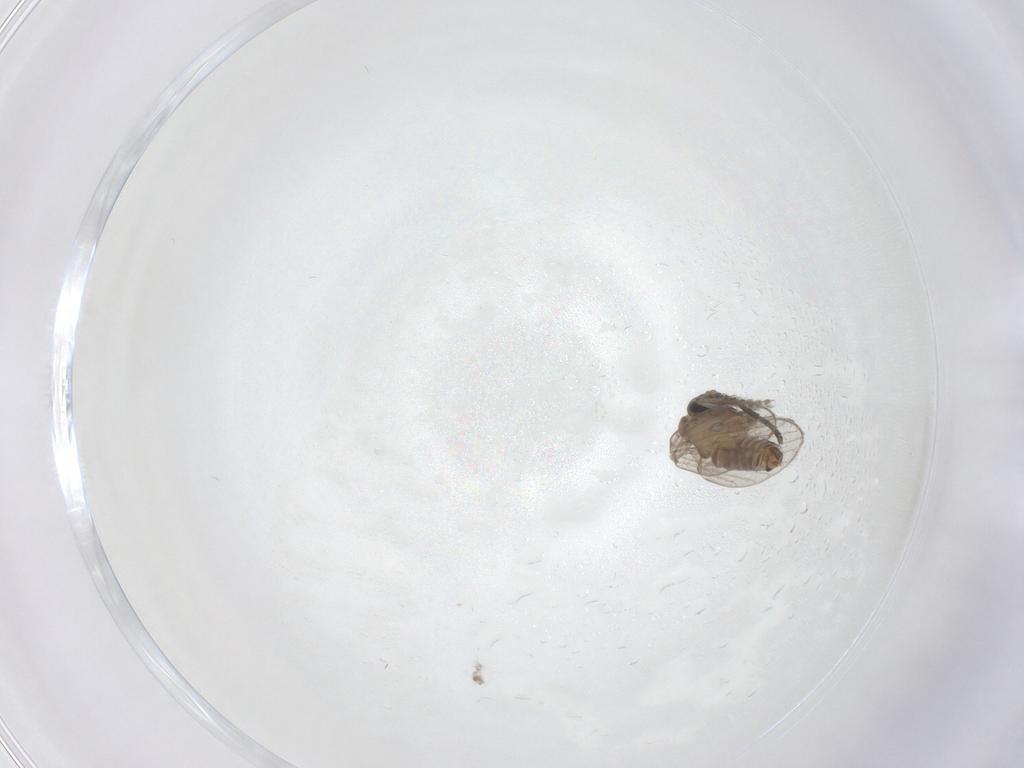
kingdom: Animalia
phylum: Arthropoda
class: Insecta
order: Diptera
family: Psychodidae
